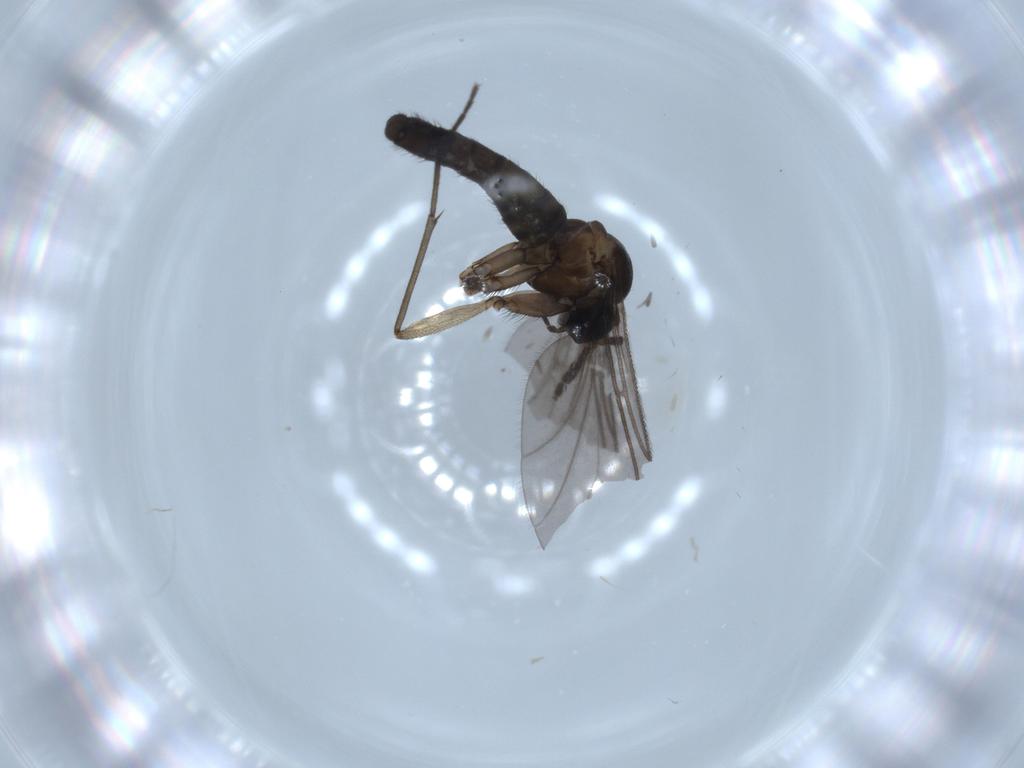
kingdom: Animalia
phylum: Arthropoda
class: Insecta
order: Diptera
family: Sciaridae
